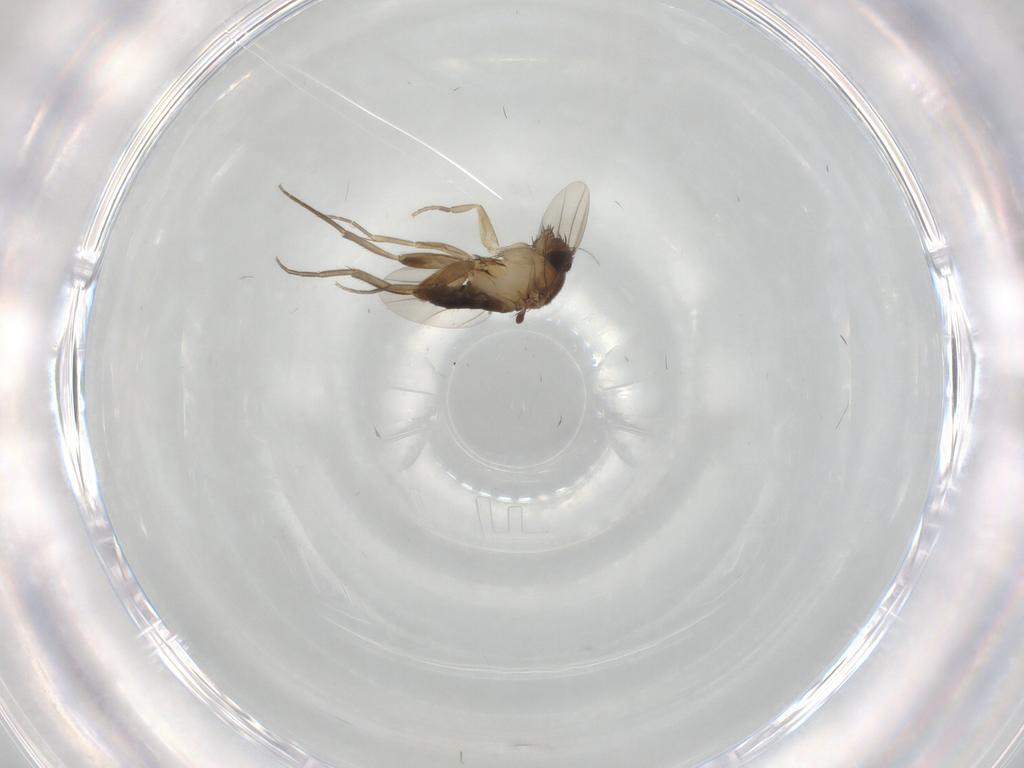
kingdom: Animalia
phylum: Arthropoda
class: Insecta
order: Diptera
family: Phoridae
